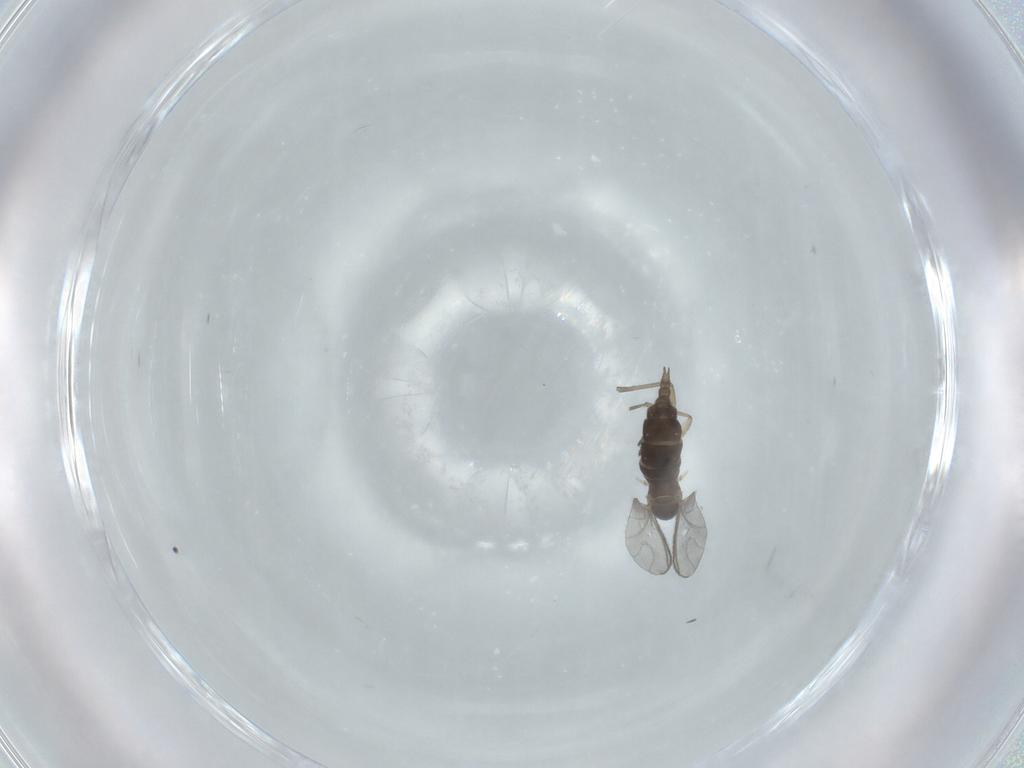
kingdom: Animalia
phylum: Arthropoda
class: Insecta
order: Diptera
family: Sciaridae
